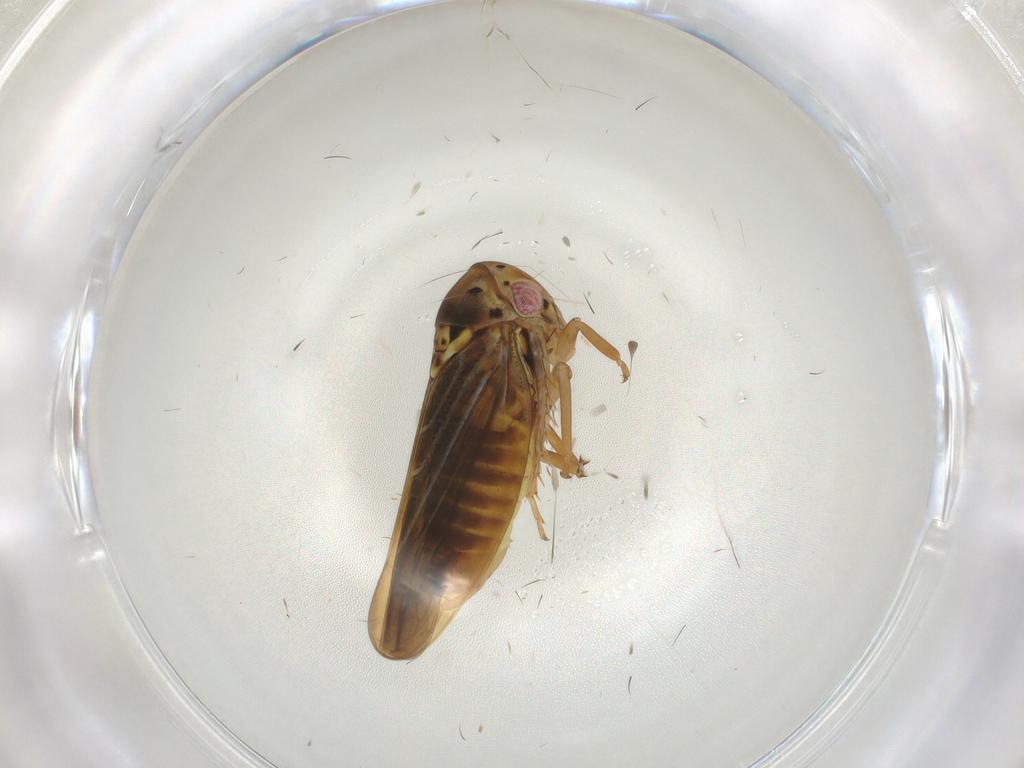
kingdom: Animalia
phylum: Arthropoda
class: Insecta
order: Hemiptera
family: Cicadellidae
